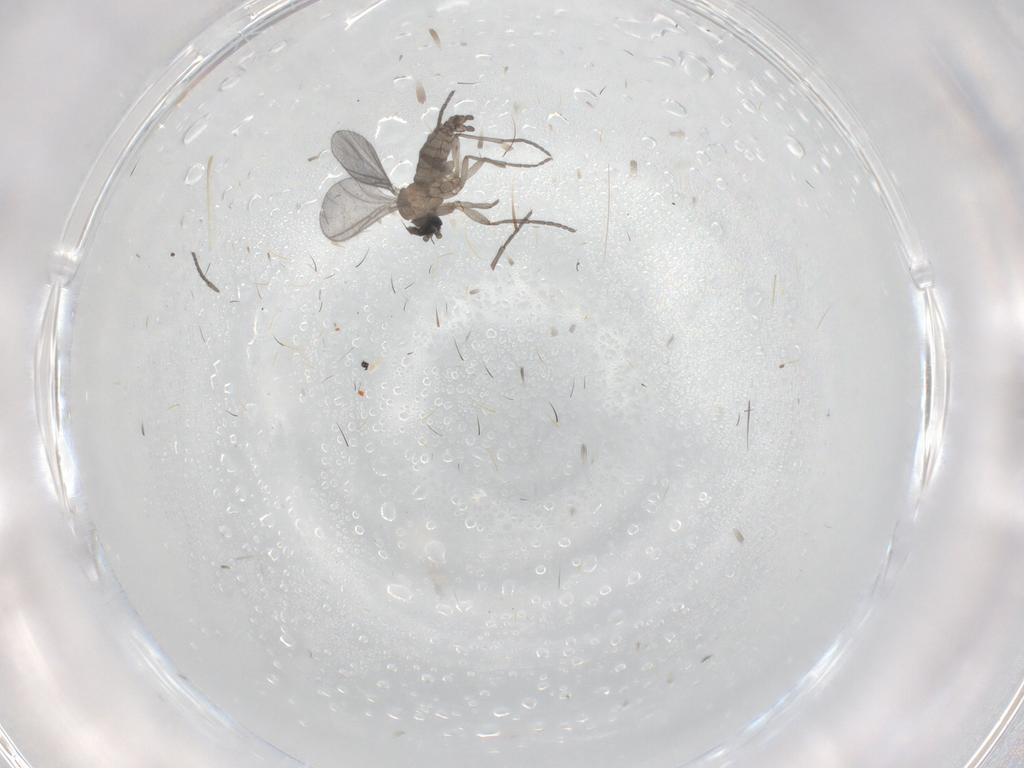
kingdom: Animalia
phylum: Arthropoda
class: Insecta
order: Diptera
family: Sciaridae
